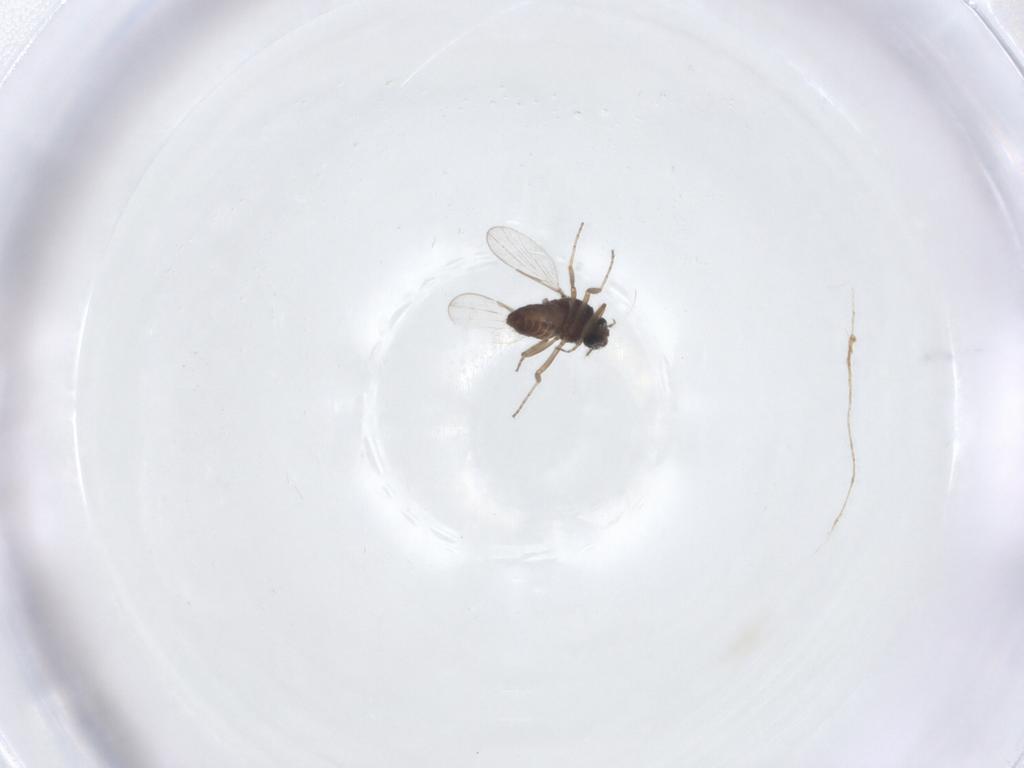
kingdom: Animalia
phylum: Arthropoda
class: Insecta
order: Diptera
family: Ceratopogonidae
